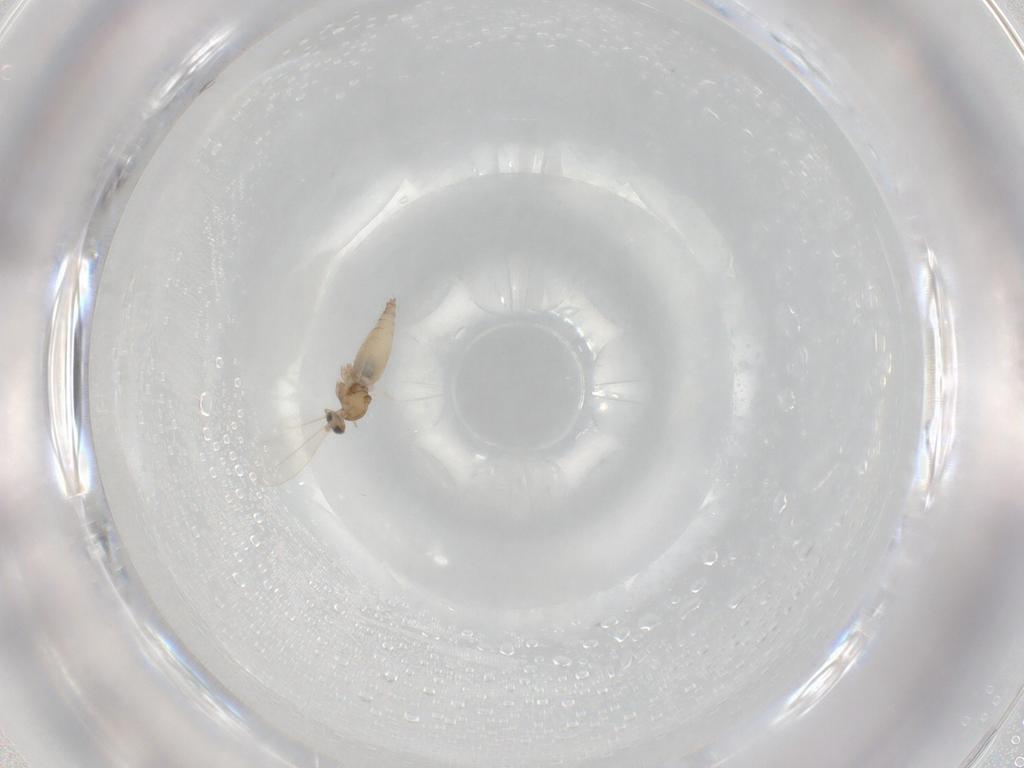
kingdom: Animalia
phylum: Arthropoda
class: Insecta
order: Diptera
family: Cecidomyiidae
